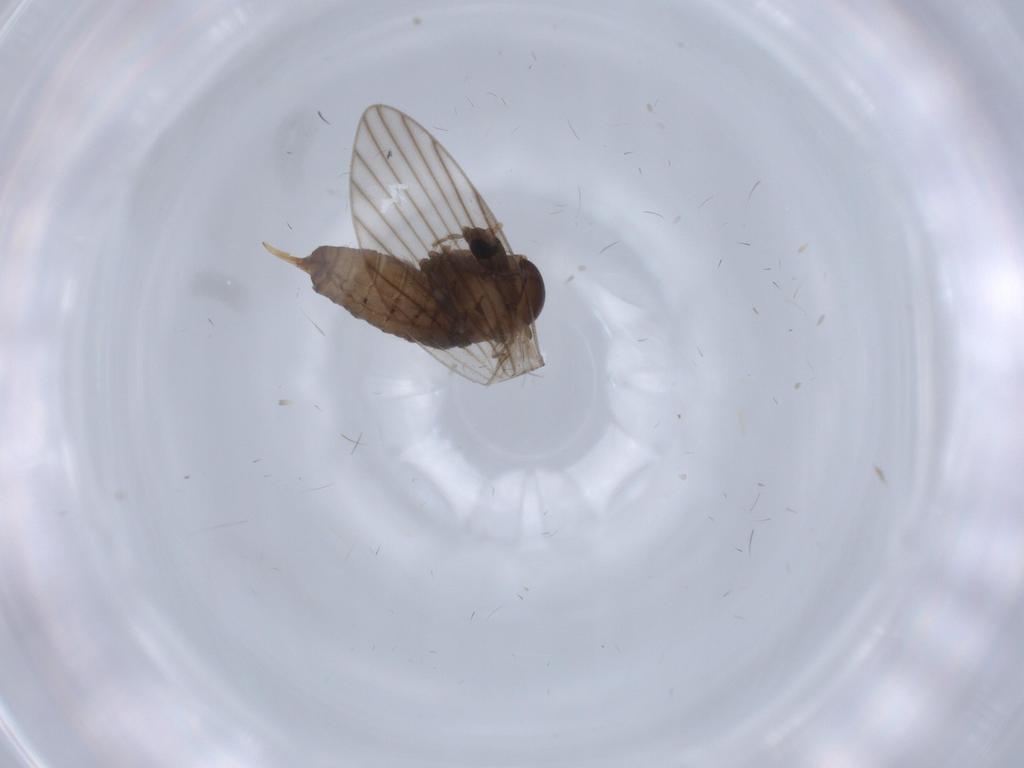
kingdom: Animalia
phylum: Arthropoda
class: Insecta
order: Diptera
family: Psychodidae
